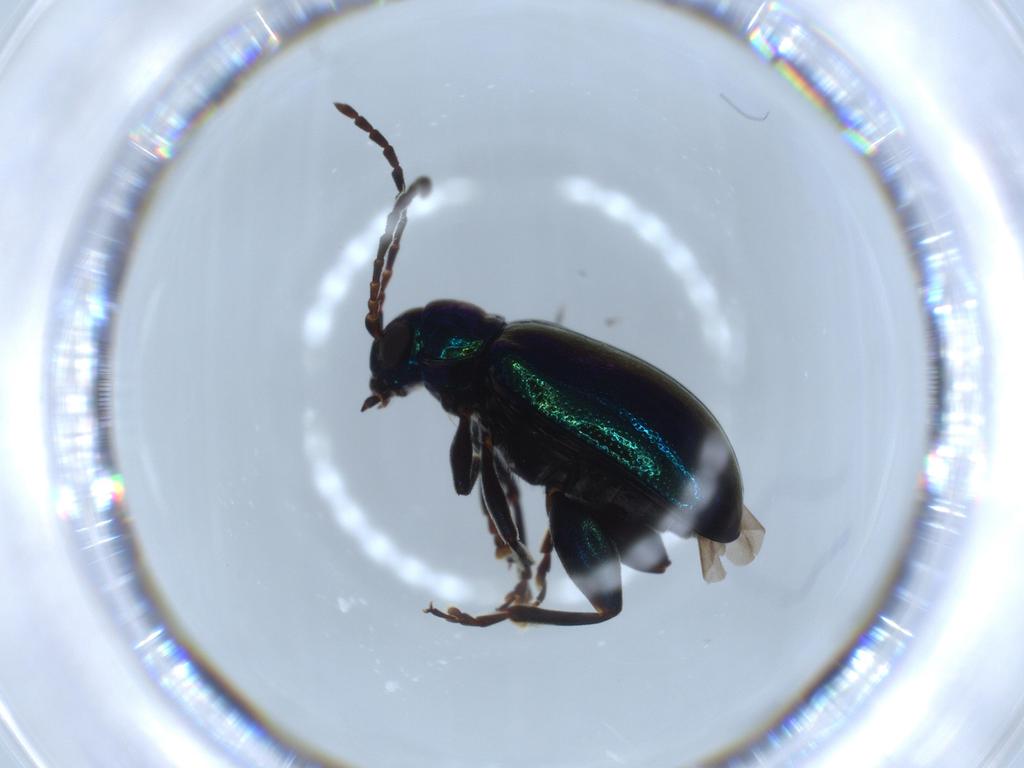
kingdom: Animalia
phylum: Arthropoda
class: Insecta
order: Coleoptera
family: Chrysomelidae
